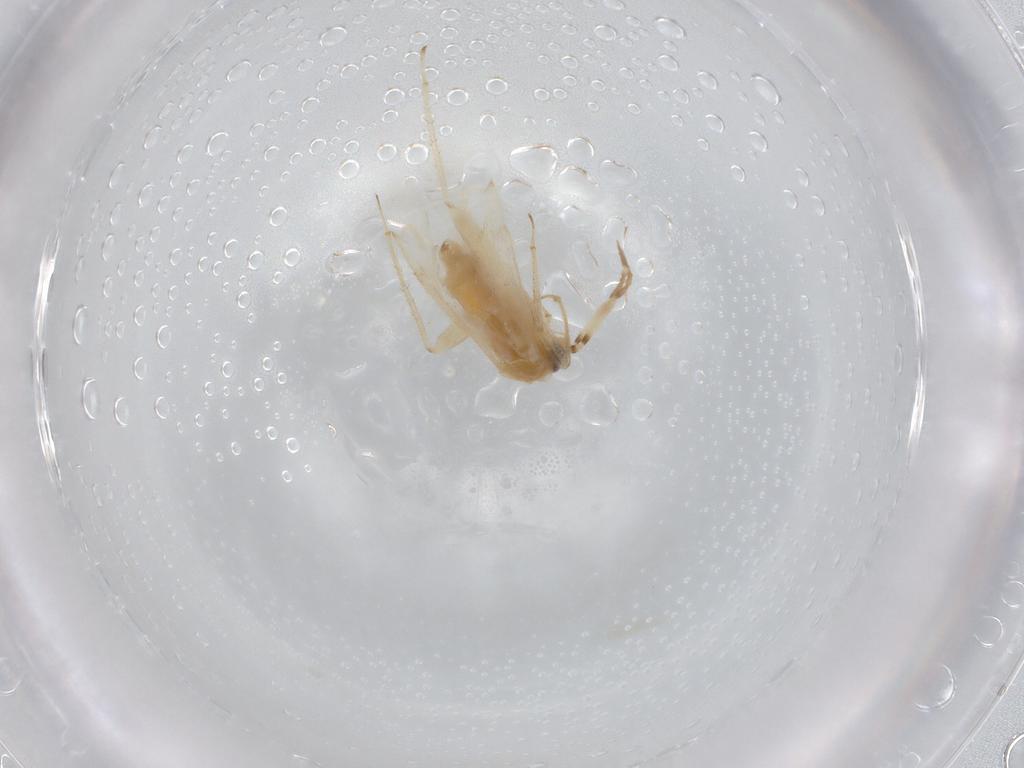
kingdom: Animalia
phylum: Arthropoda
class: Insecta
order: Hemiptera
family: Miridae
